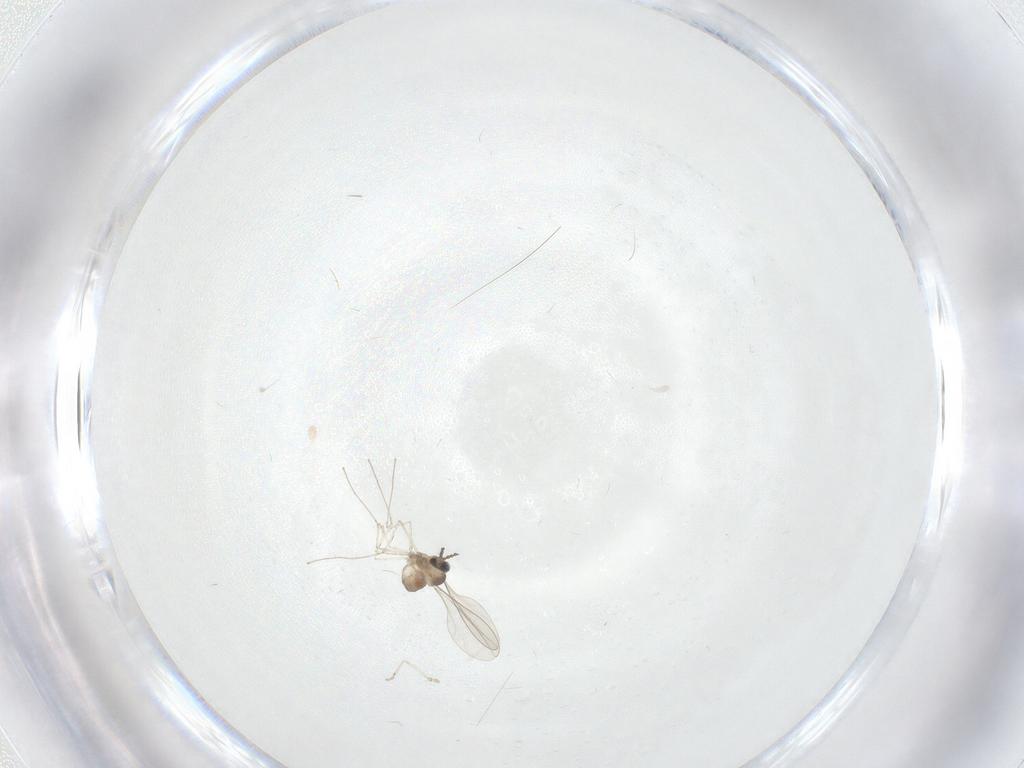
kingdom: Animalia
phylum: Arthropoda
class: Insecta
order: Diptera
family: Cecidomyiidae
